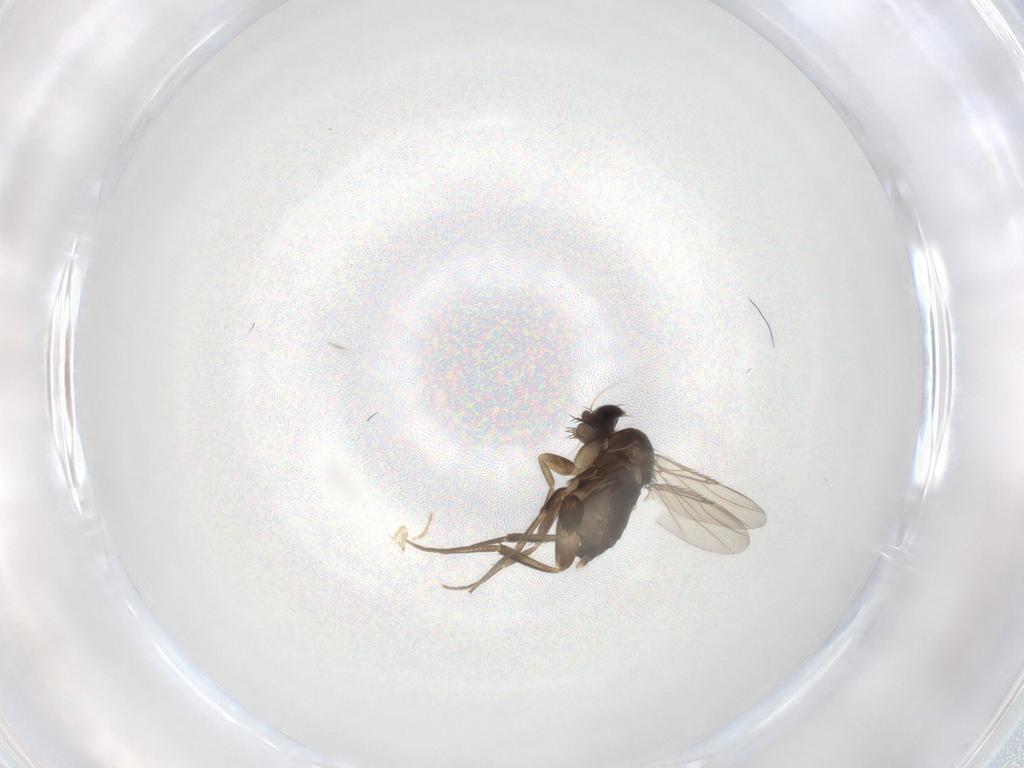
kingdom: Animalia
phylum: Arthropoda
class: Insecta
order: Diptera
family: Phoridae
